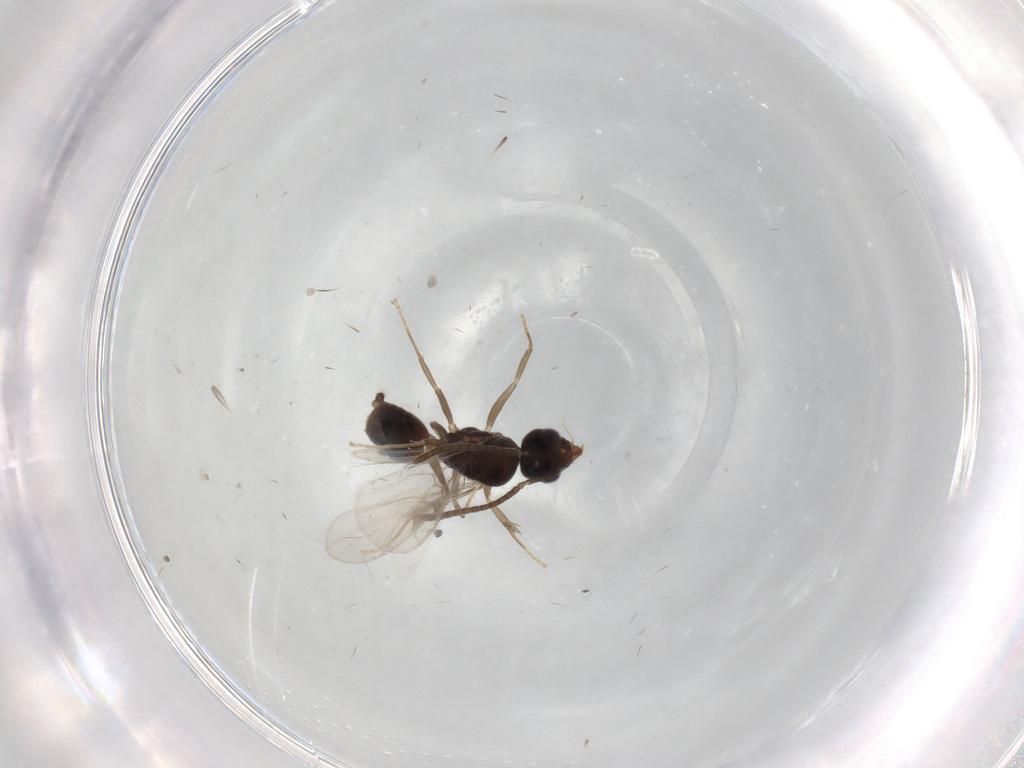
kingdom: Animalia
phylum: Arthropoda
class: Insecta
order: Hymenoptera
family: Formicidae
